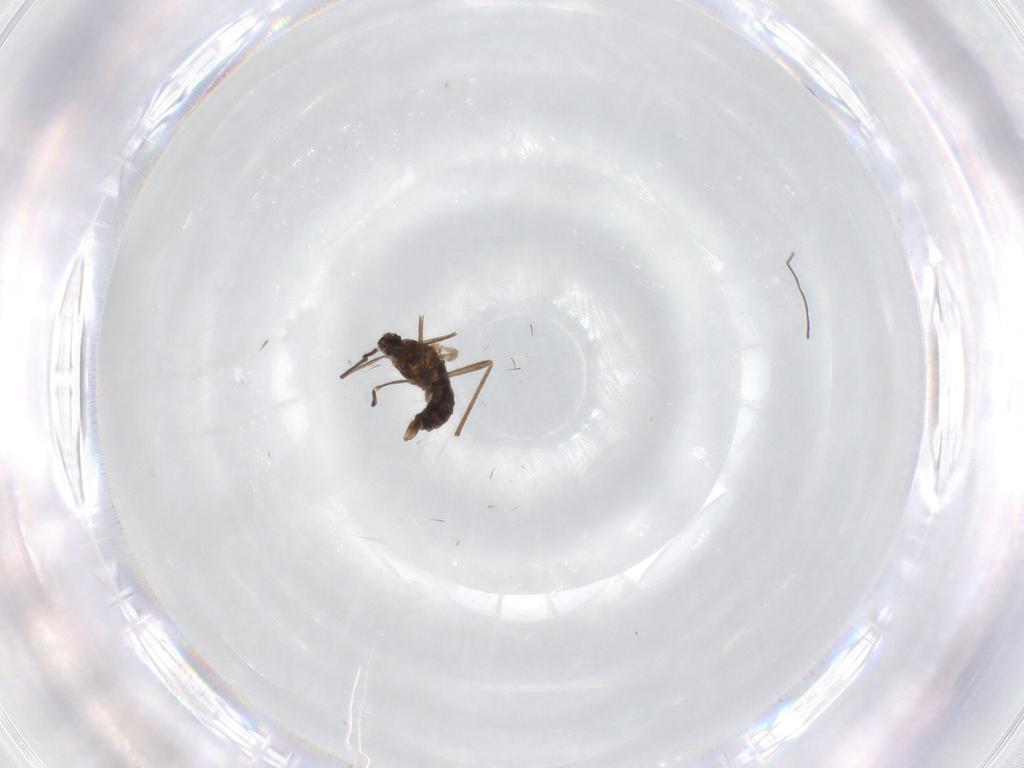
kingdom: Animalia
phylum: Arthropoda
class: Insecta
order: Diptera
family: Cecidomyiidae
